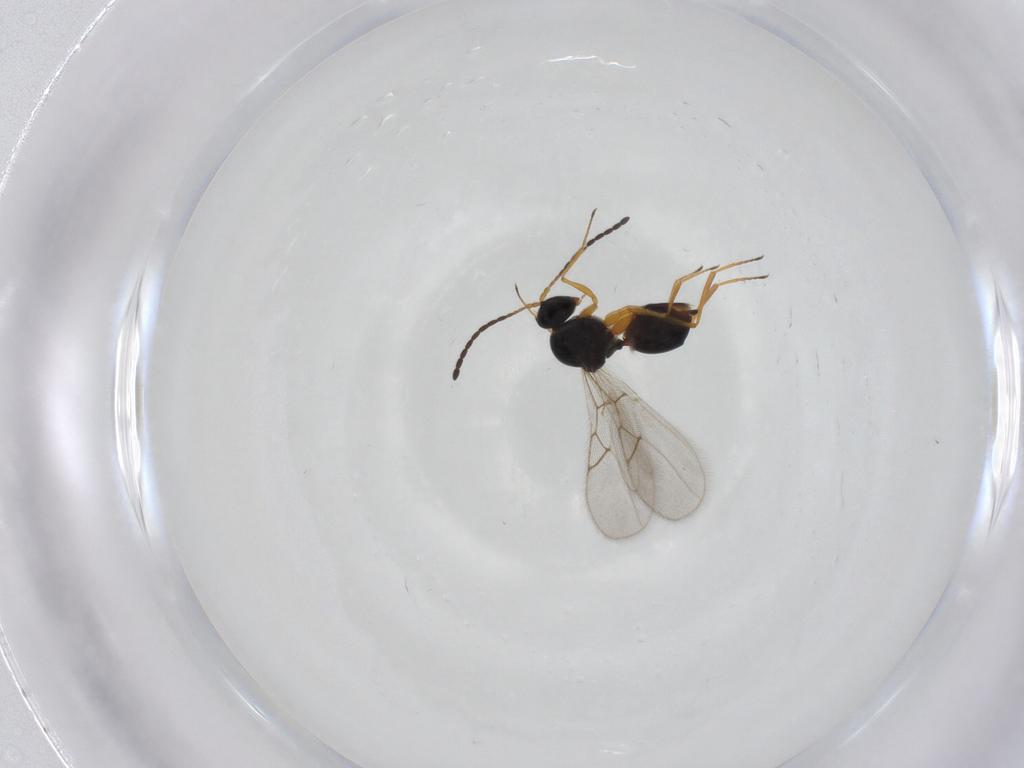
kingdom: Animalia
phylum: Arthropoda
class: Insecta
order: Hymenoptera
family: Figitidae
